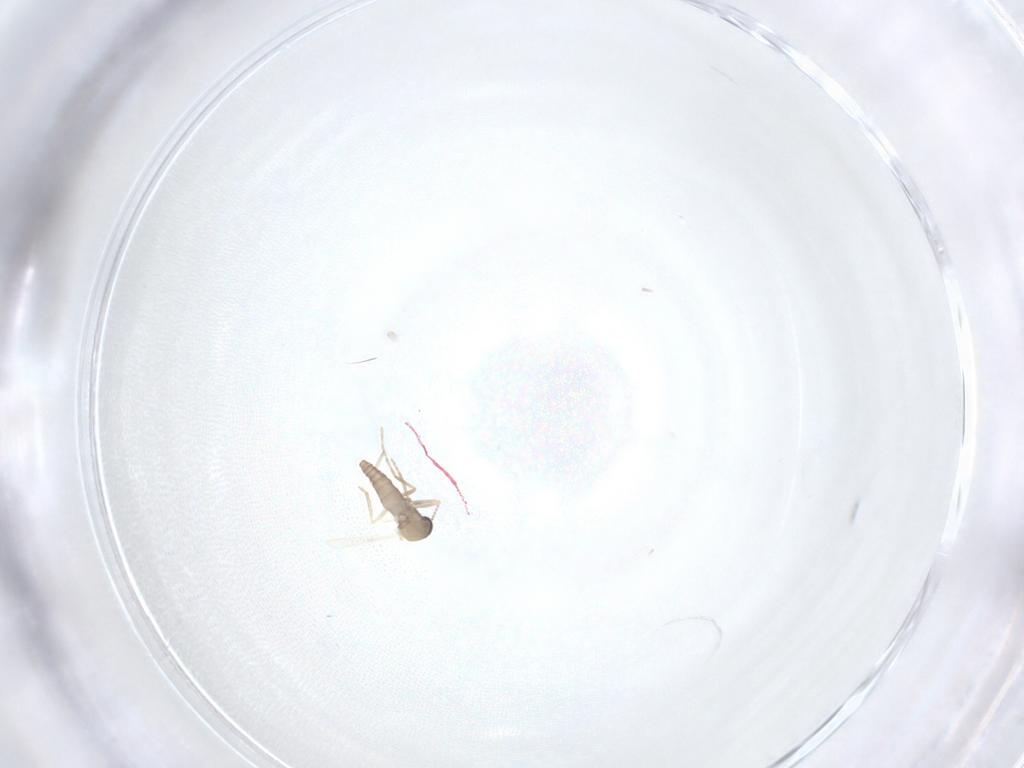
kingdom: Animalia
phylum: Arthropoda
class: Insecta
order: Diptera
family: Ceratopogonidae
